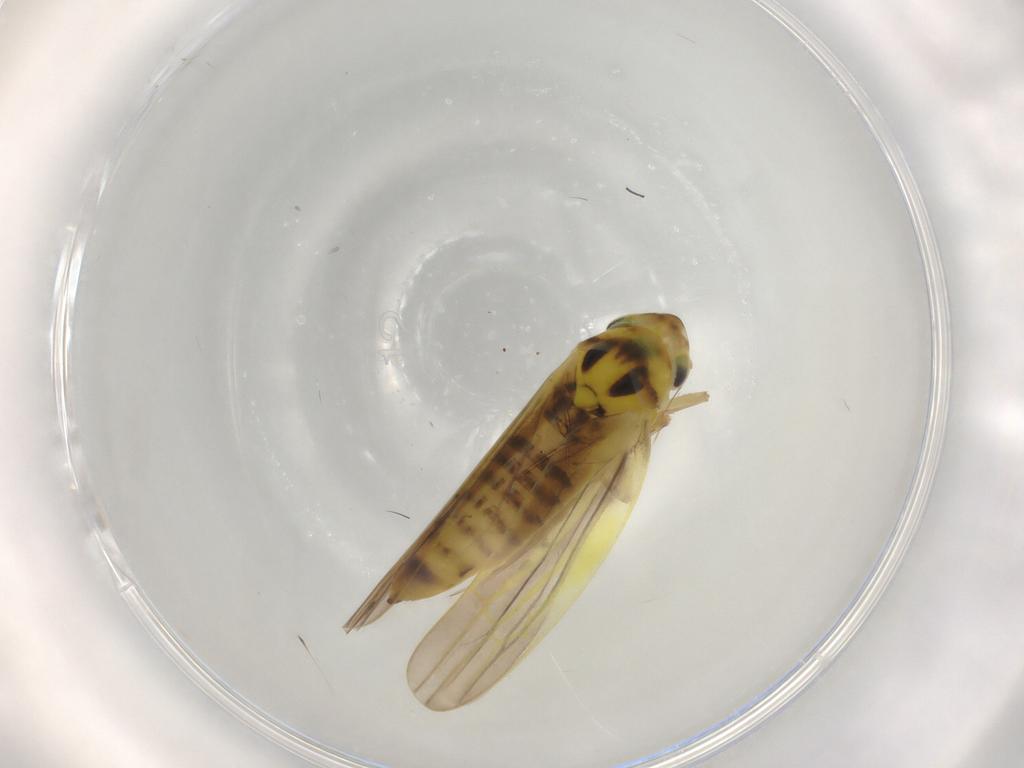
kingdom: Animalia
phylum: Arthropoda
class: Insecta
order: Hemiptera
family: Cicadellidae
